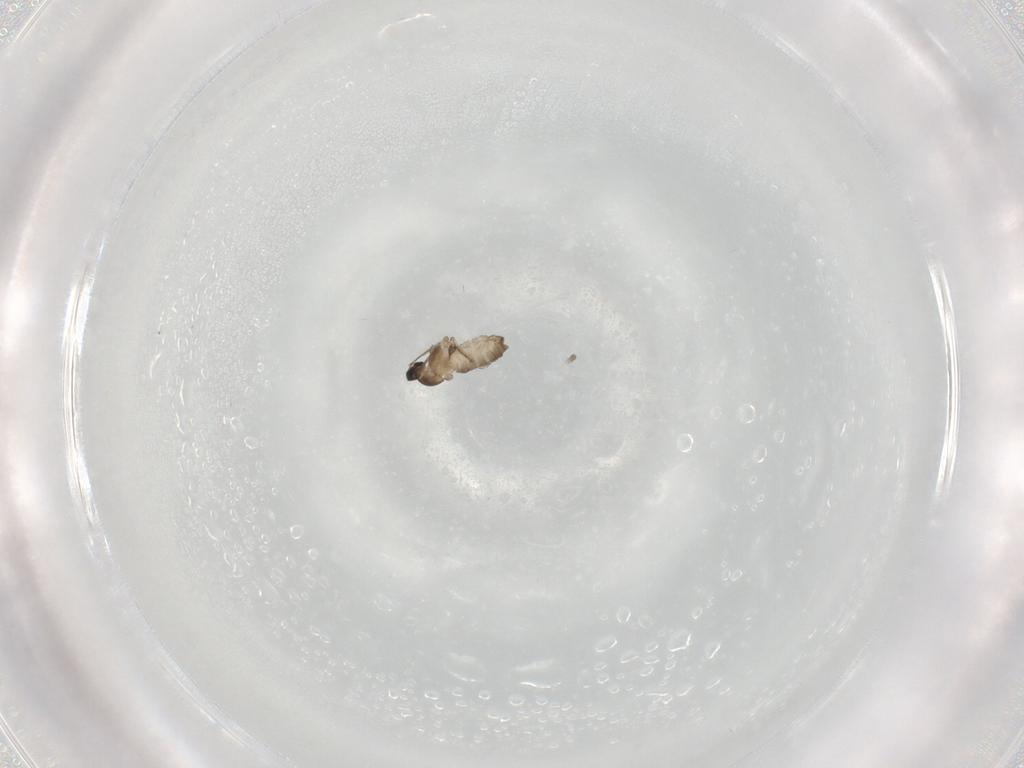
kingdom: Animalia
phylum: Arthropoda
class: Insecta
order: Diptera
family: Cecidomyiidae
